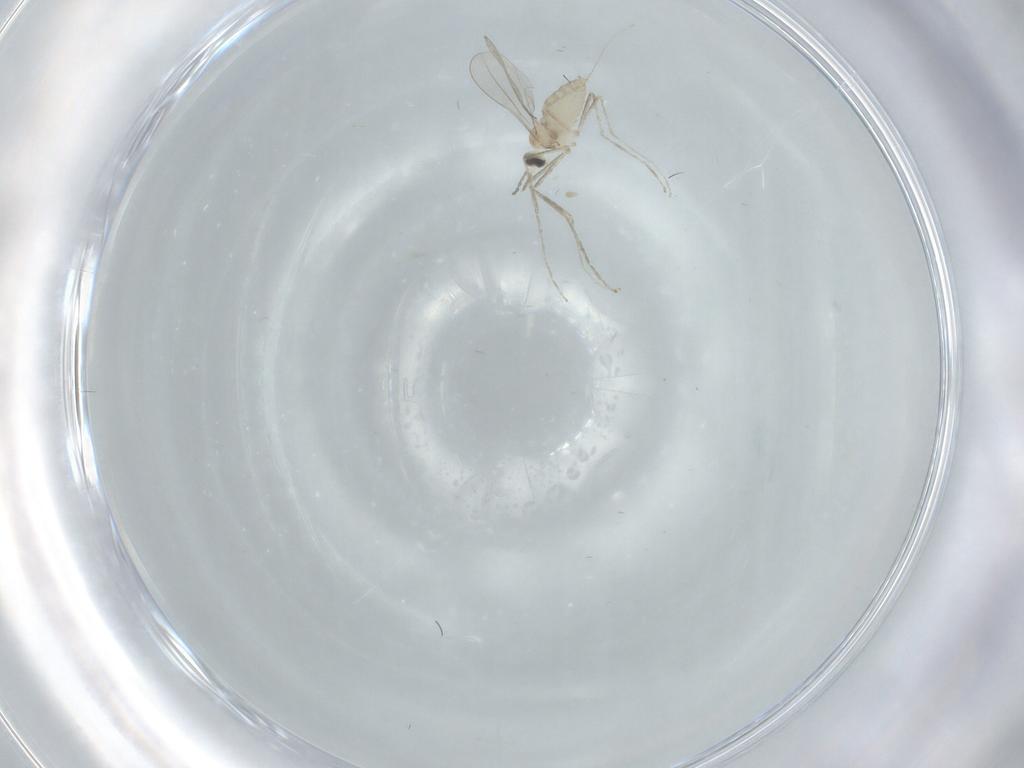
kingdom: Animalia
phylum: Arthropoda
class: Insecta
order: Diptera
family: Cecidomyiidae
